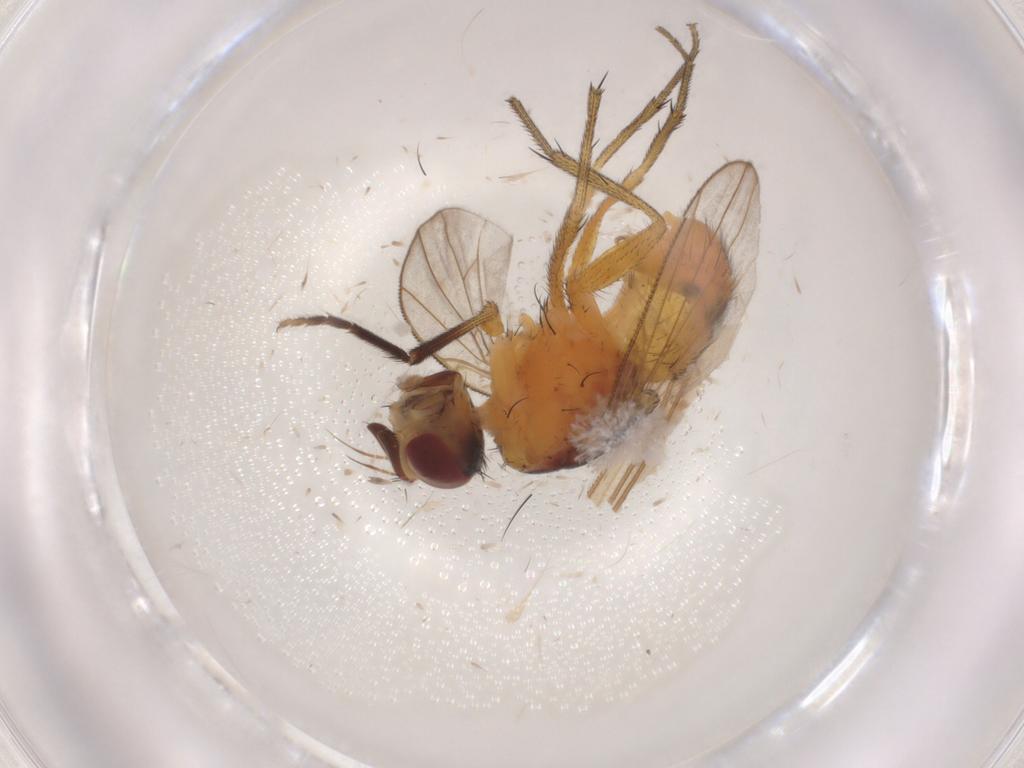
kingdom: Animalia
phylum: Arthropoda
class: Insecta
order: Diptera
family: Muscidae
